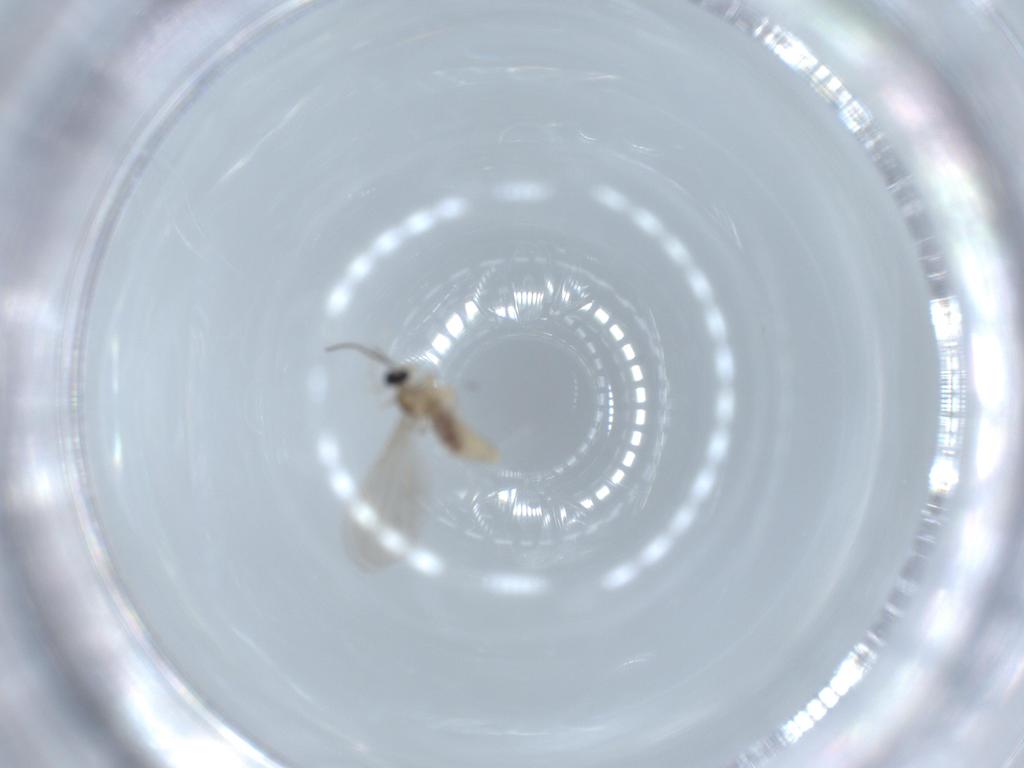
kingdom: Animalia
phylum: Arthropoda
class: Insecta
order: Diptera
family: Cecidomyiidae
